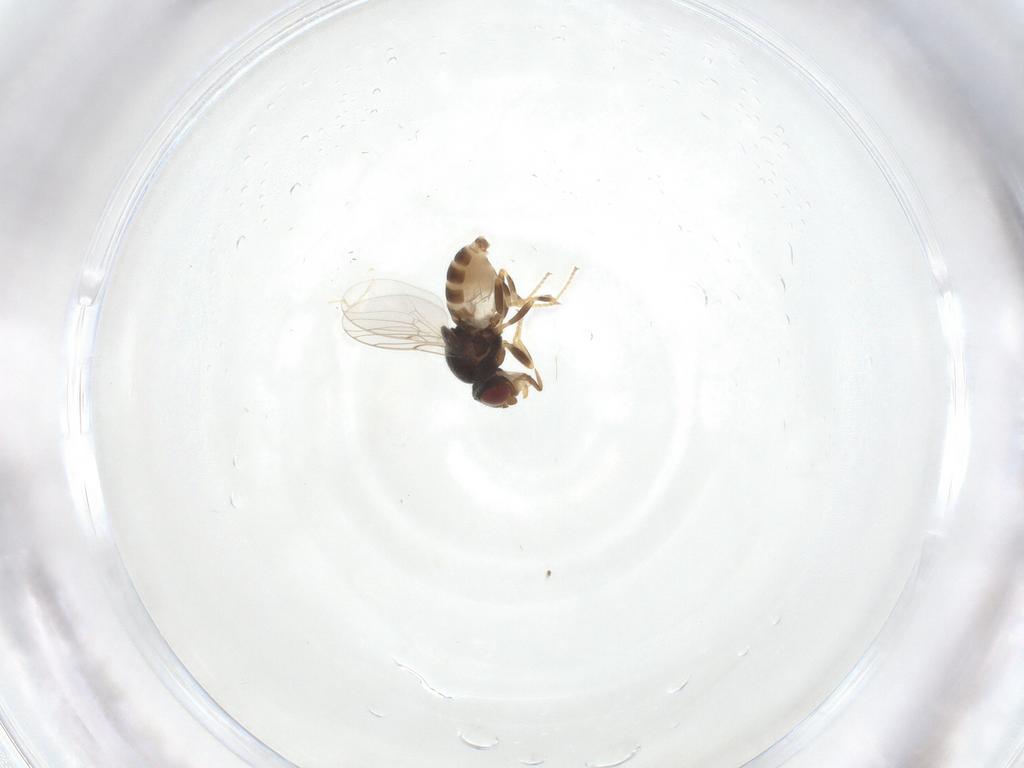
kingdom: Animalia
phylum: Arthropoda
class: Insecta
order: Diptera
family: Chloropidae
